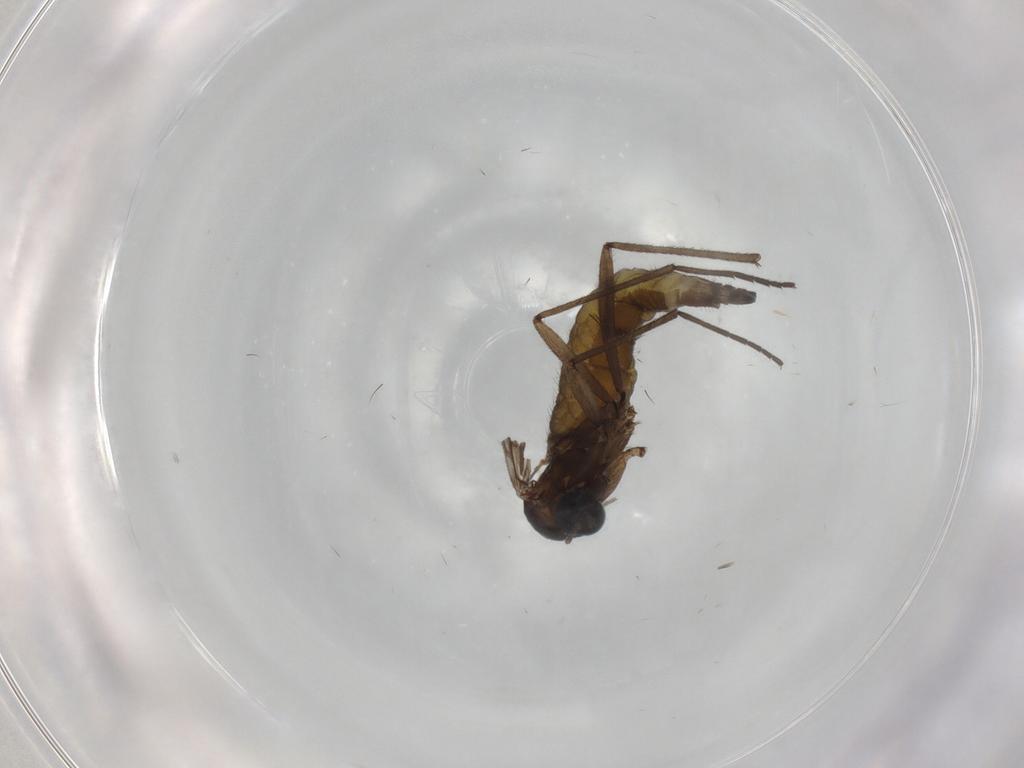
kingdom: Animalia
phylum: Arthropoda
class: Insecta
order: Diptera
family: Sciaridae
